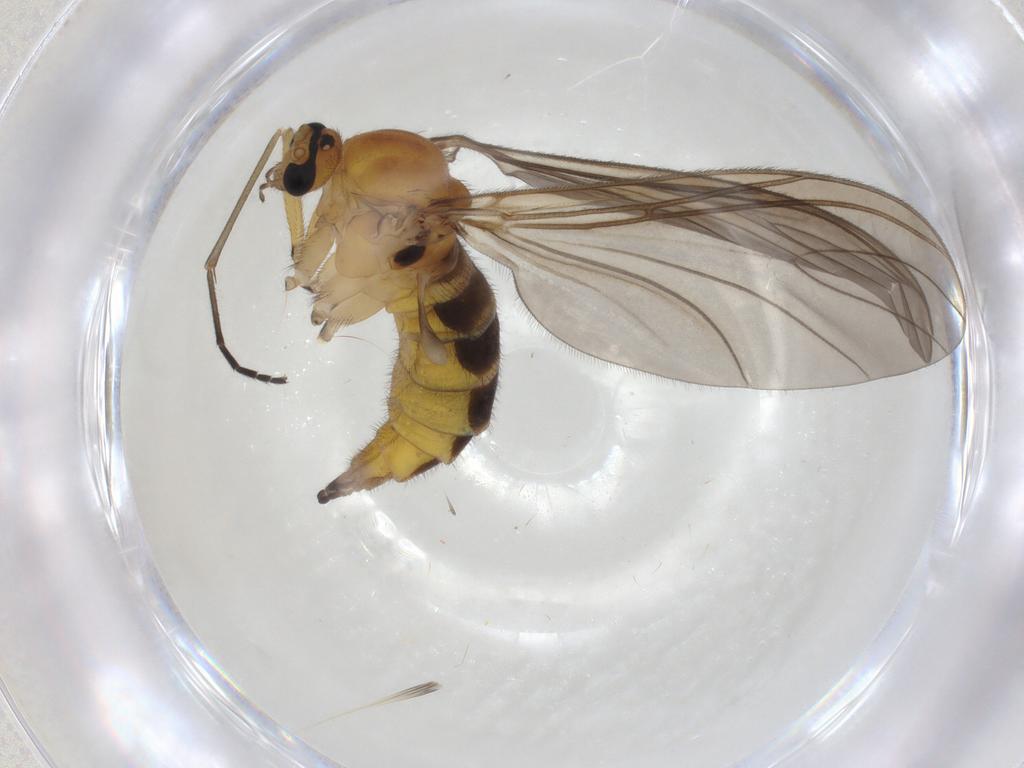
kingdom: Animalia
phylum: Arthropoda
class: Insecta
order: Diptera
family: Sciaridae
